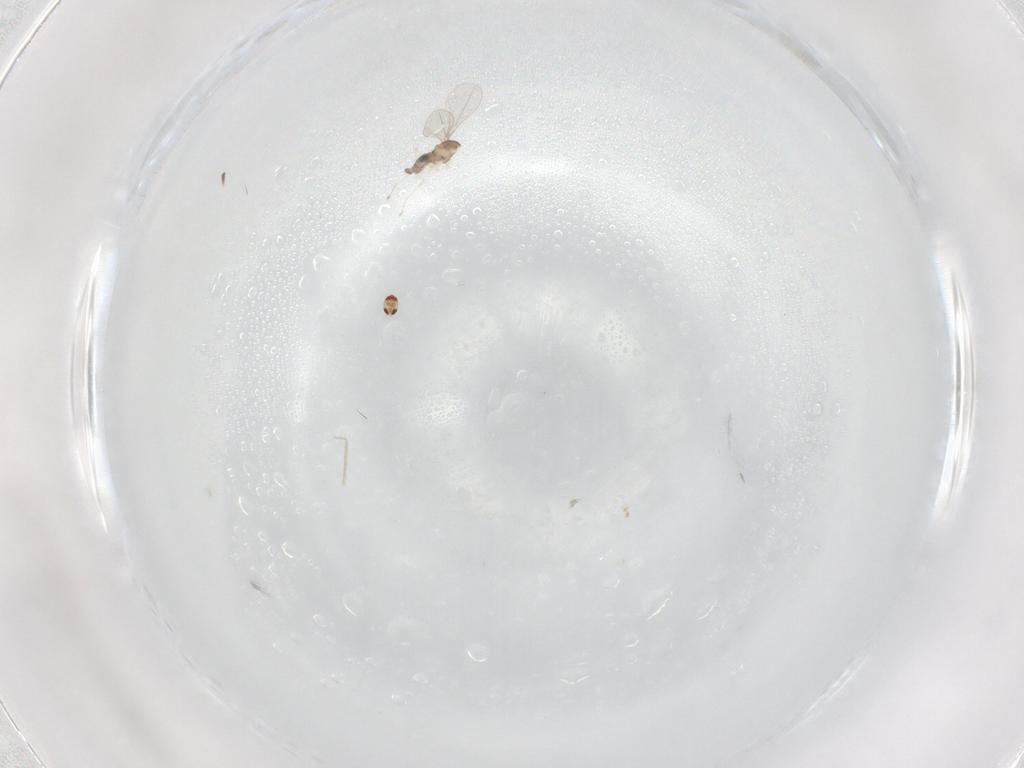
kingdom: Animalia
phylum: Arthropoda
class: Insecta
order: Diptera
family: Cecidomyiidae
